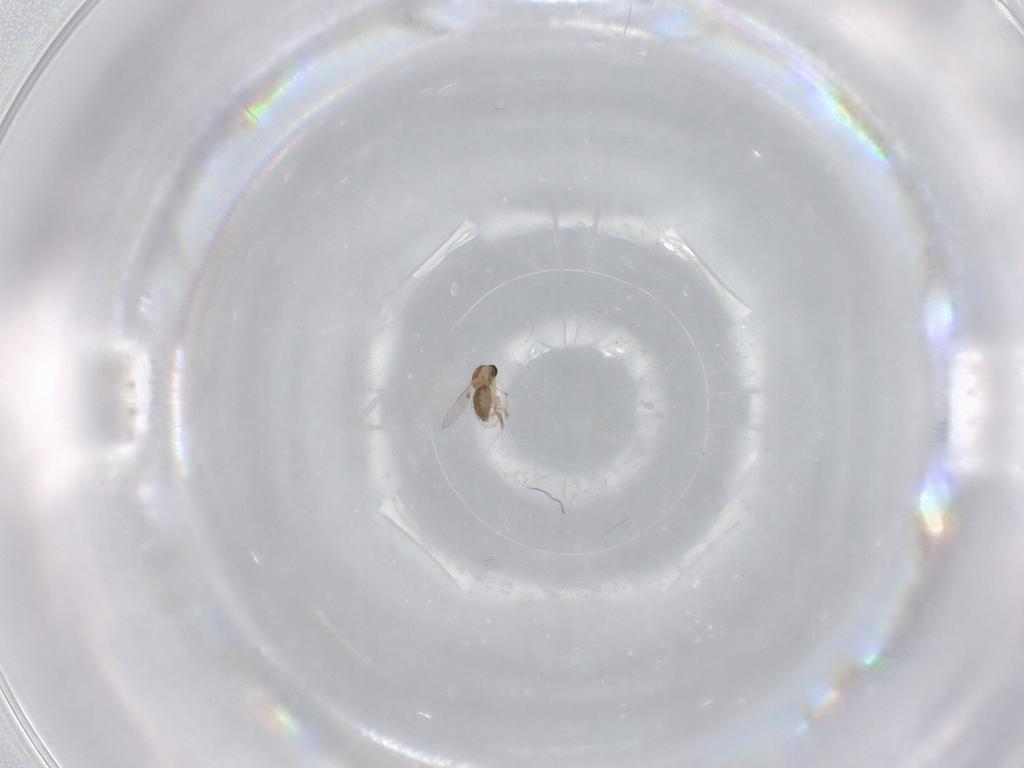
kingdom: Animalia
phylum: Arthropoda
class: Insecta
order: Diptera
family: Ceratopogonidae
